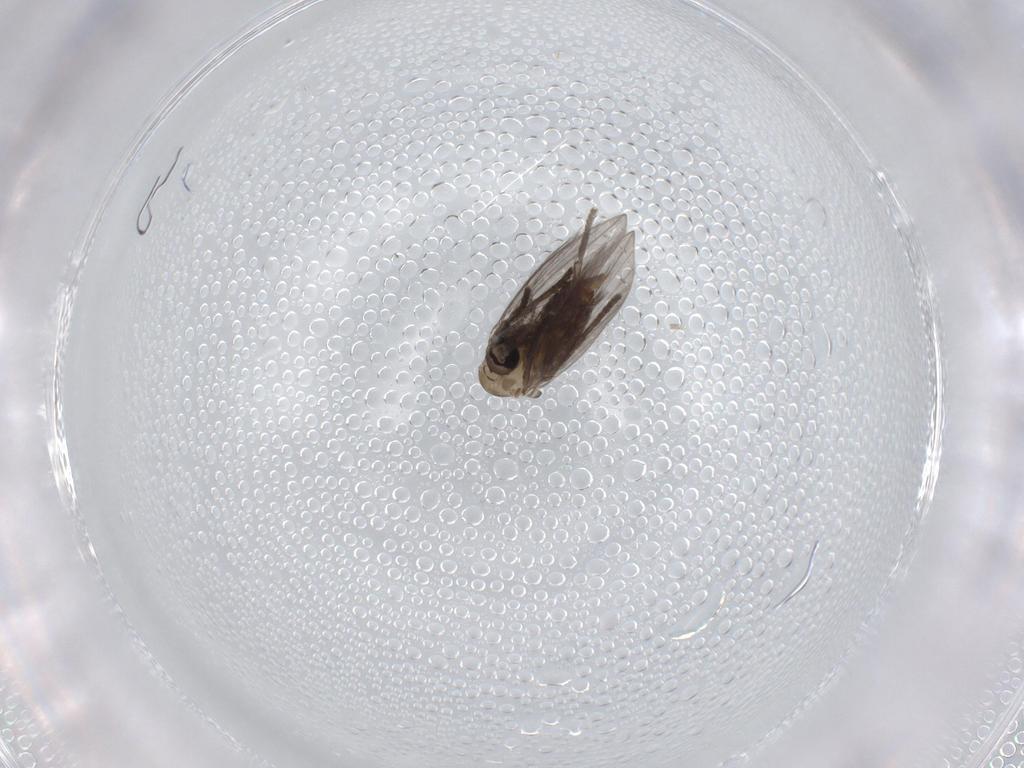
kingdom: Animalia
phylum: Arthropoda
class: Insecta
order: Diptera
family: Psychodidae
